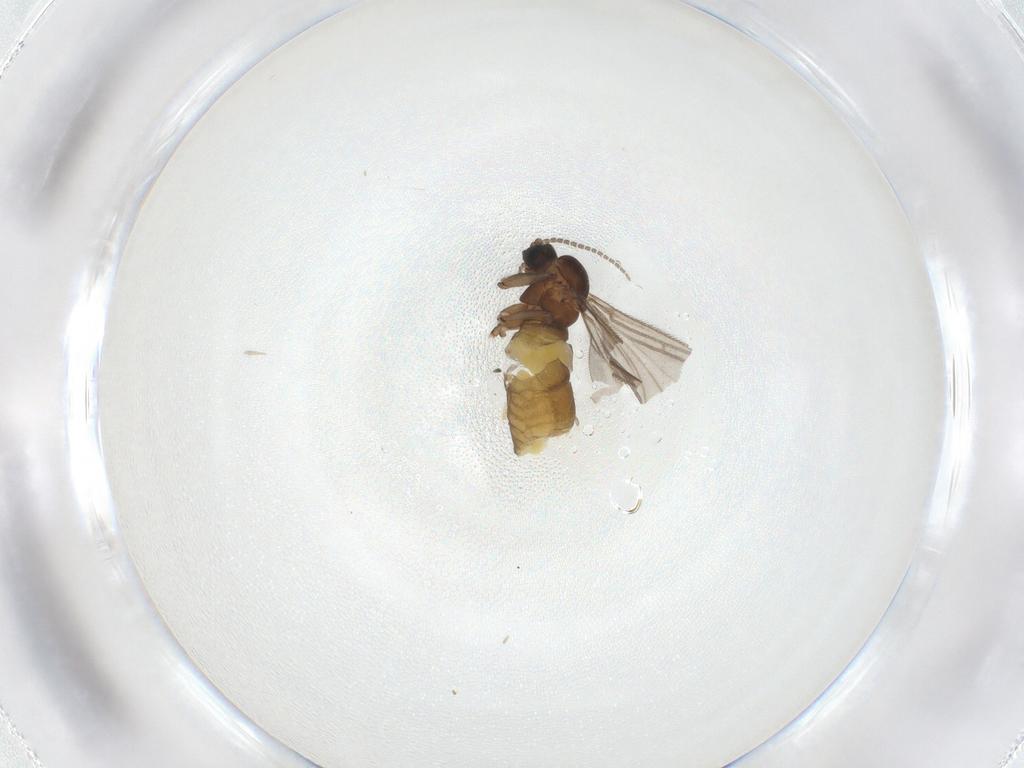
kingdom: Animalia
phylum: Arthropoda
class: Insecta
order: Diptera
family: Sciaridae
